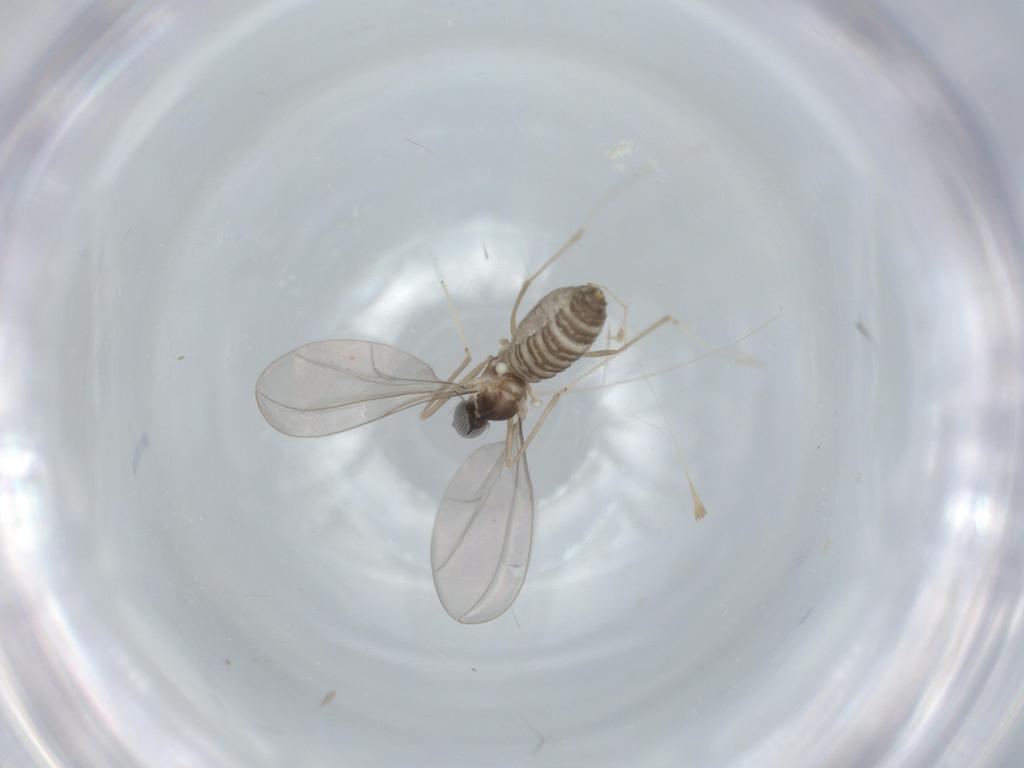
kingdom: Animalia
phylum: Arthropoda
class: Insecta
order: Diptera
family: Cecidomyiidae
